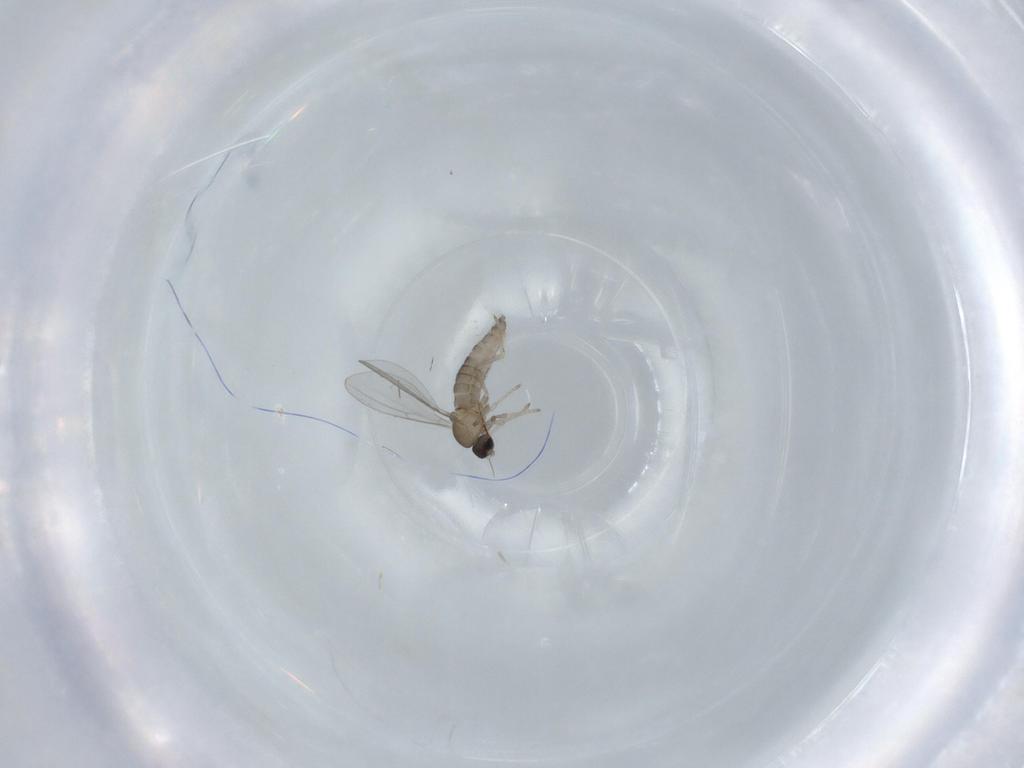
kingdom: Animalia
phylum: Arthropoda
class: Insecta
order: Diptera
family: Cecidomyiidae
